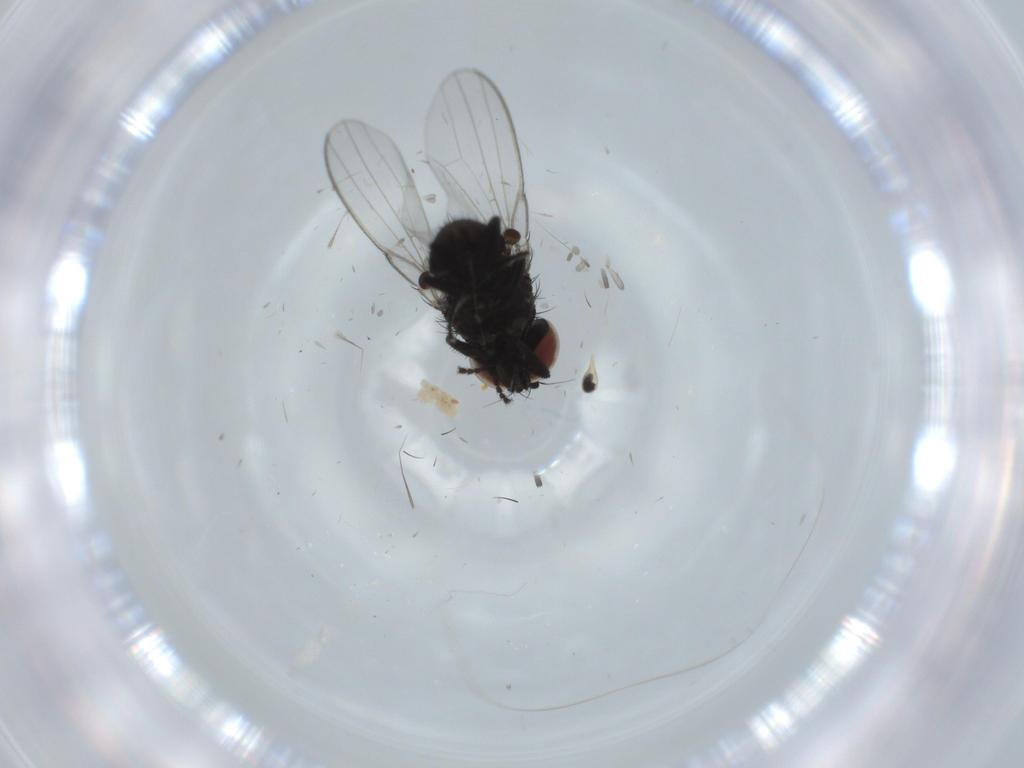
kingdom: Animalia
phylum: Arthropoda
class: Insecta
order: Diptera
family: Milichiidae
